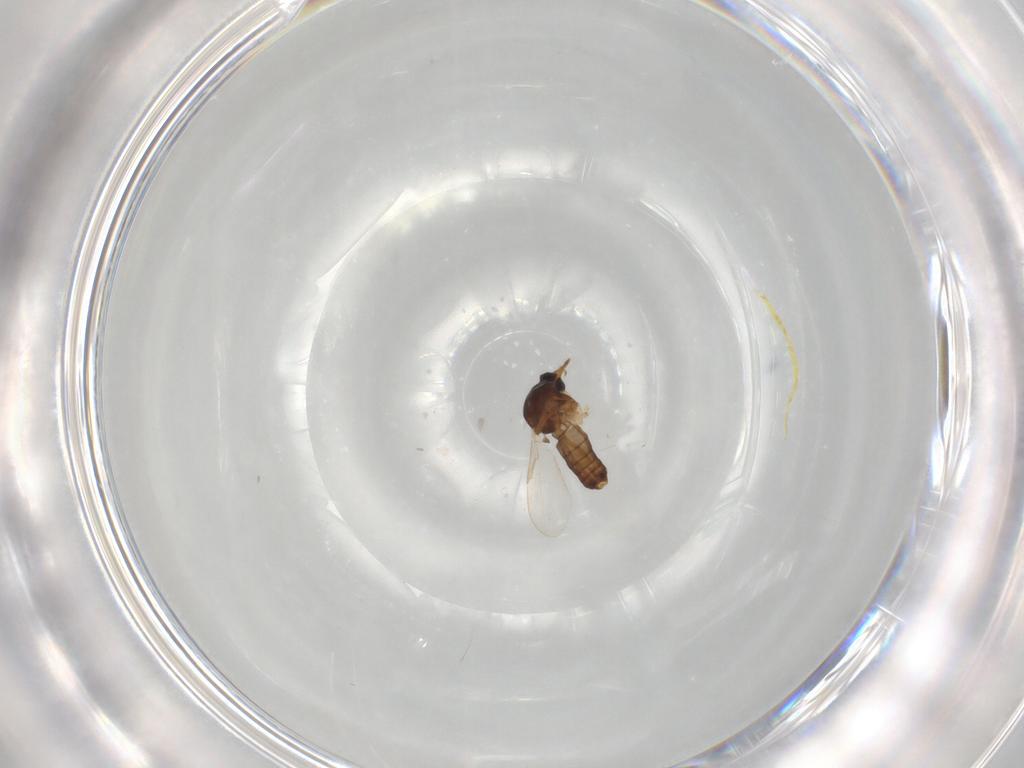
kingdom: Animalia
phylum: Arthropoda
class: Insecta
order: Diptera
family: Ceratopogonidae
